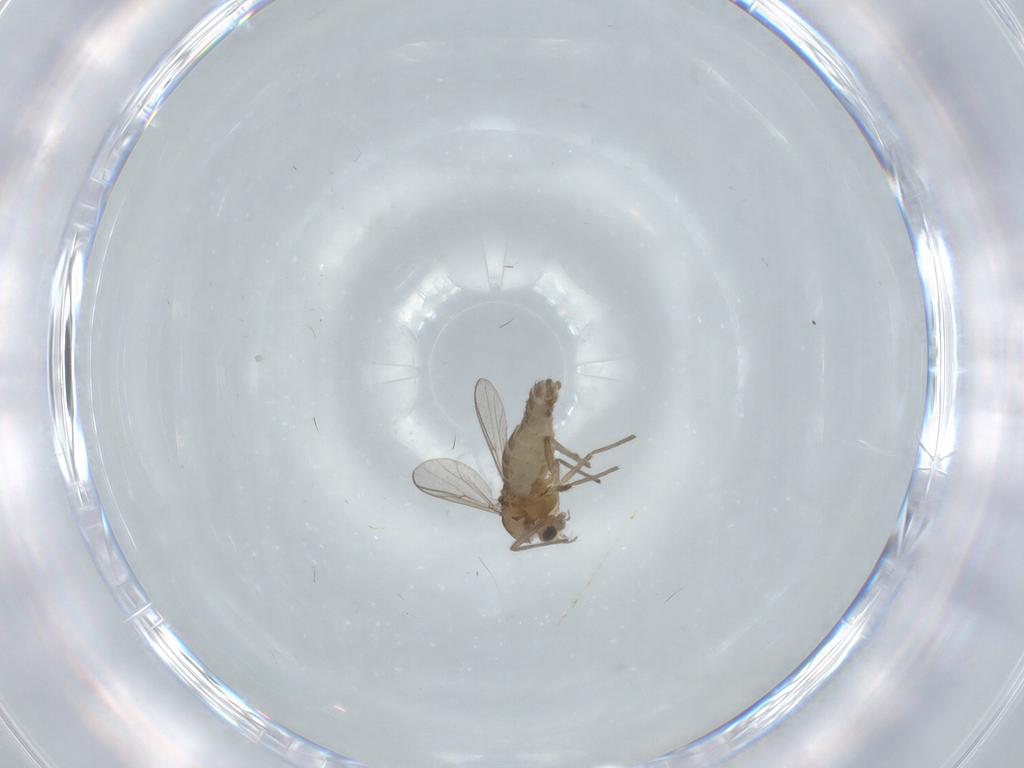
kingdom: Animalia
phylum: Arthropoda
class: Insecta
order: Diptera
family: Chironomidae
